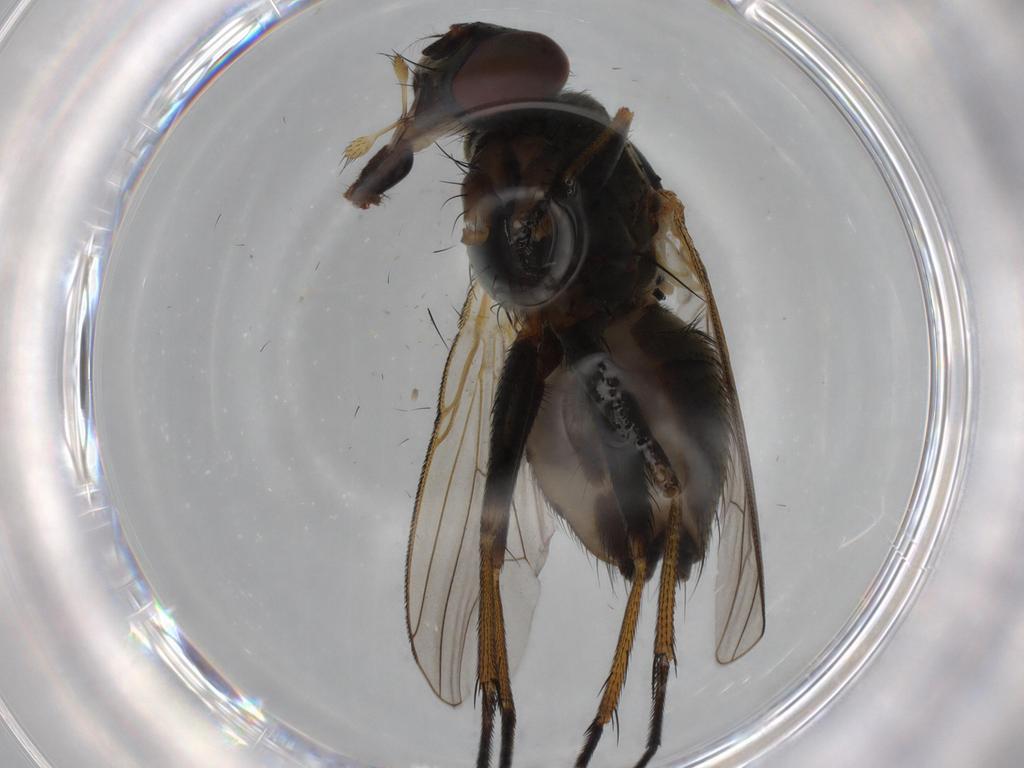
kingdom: Animalia
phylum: Arthropoda
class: Insecta
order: Diptera
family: Muscidae
